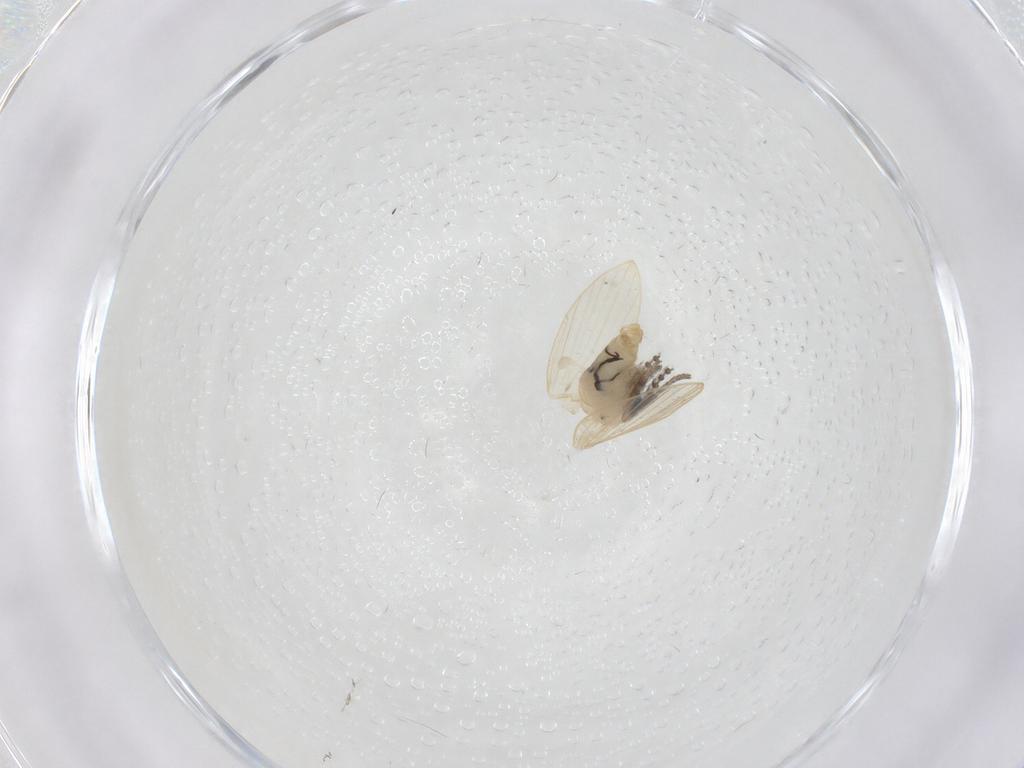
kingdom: Animalia
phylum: Arthropoda
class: Insecta
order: Diptera
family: Psychodidae
